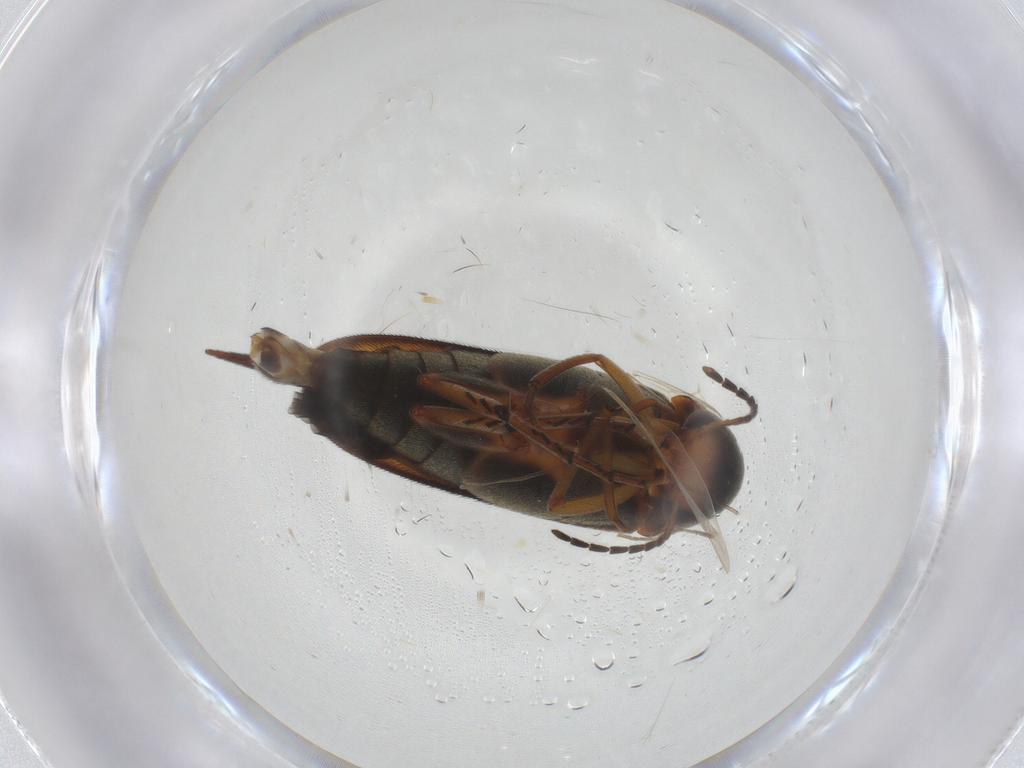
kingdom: Animalia
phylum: Arthropoda
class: Insecta
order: Coleoptera
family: Mordellidae
